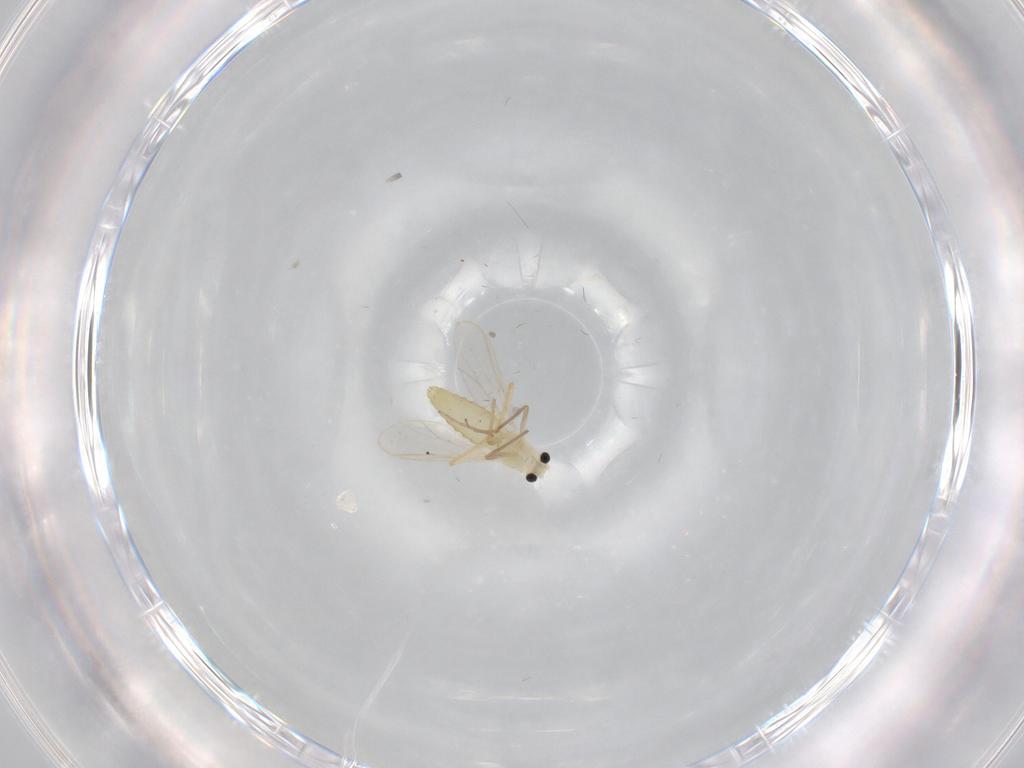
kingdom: Animalia
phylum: Arthropoda
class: Insecta
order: Diptera
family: Chironomidae
